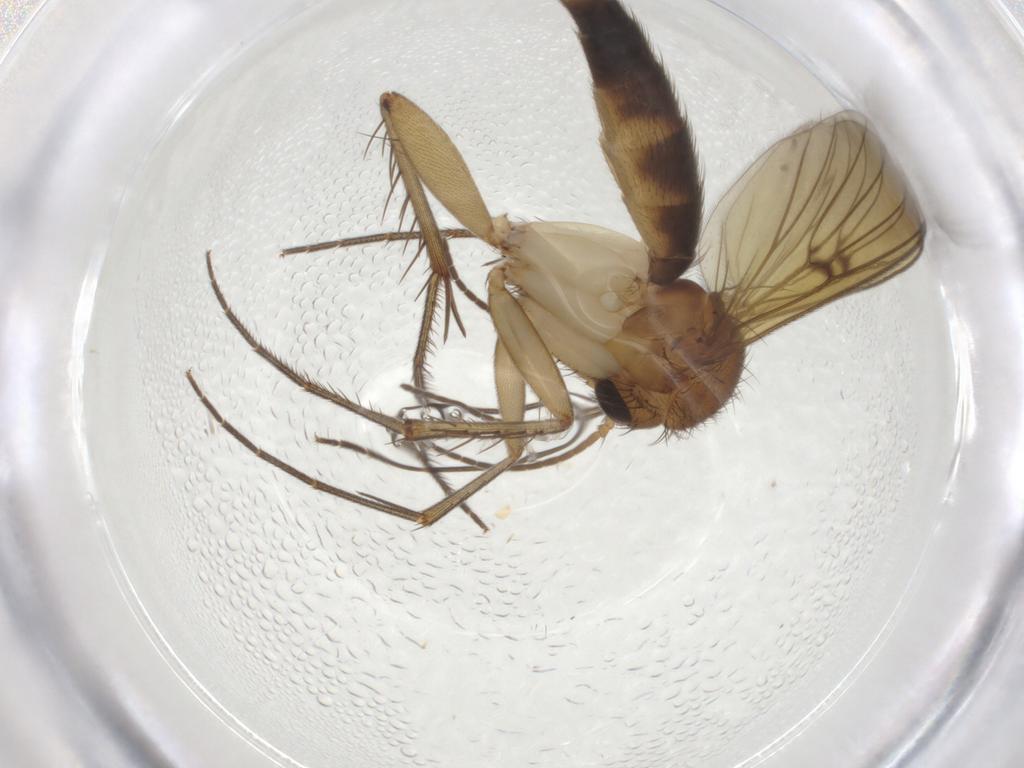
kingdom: Animalia
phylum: Arthropoda
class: Insecta
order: Diptera
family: Mycetophilidae
